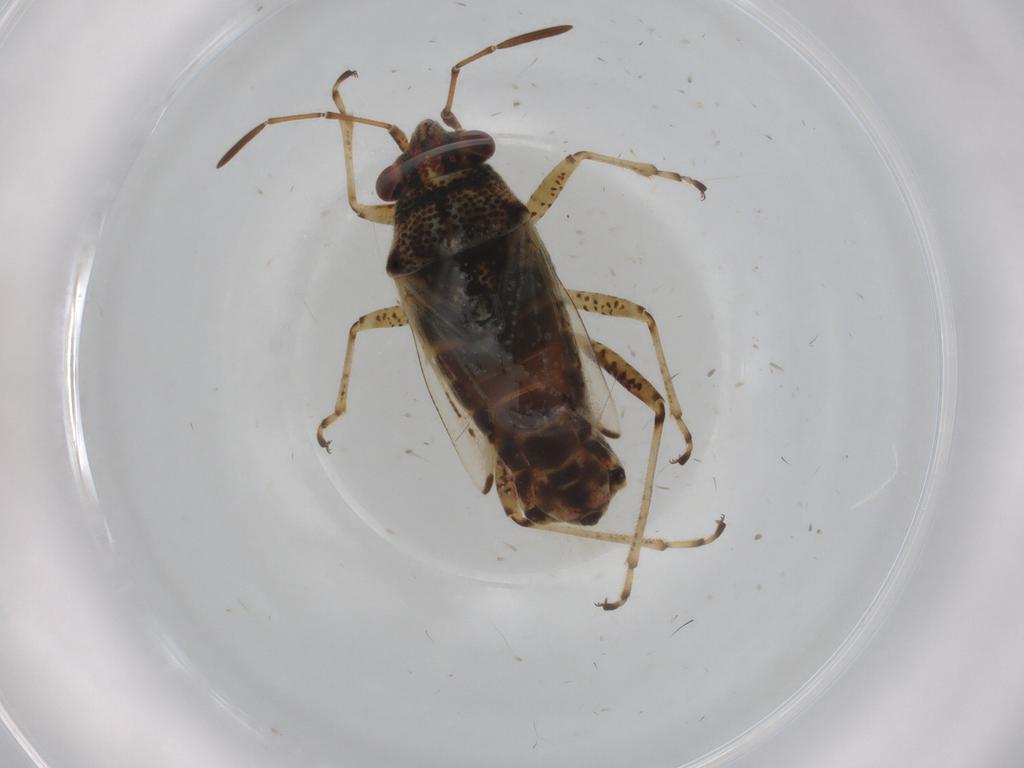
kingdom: Animalia
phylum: Arthropoda
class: Insecta
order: Hemiptera
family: Lygaeidae
